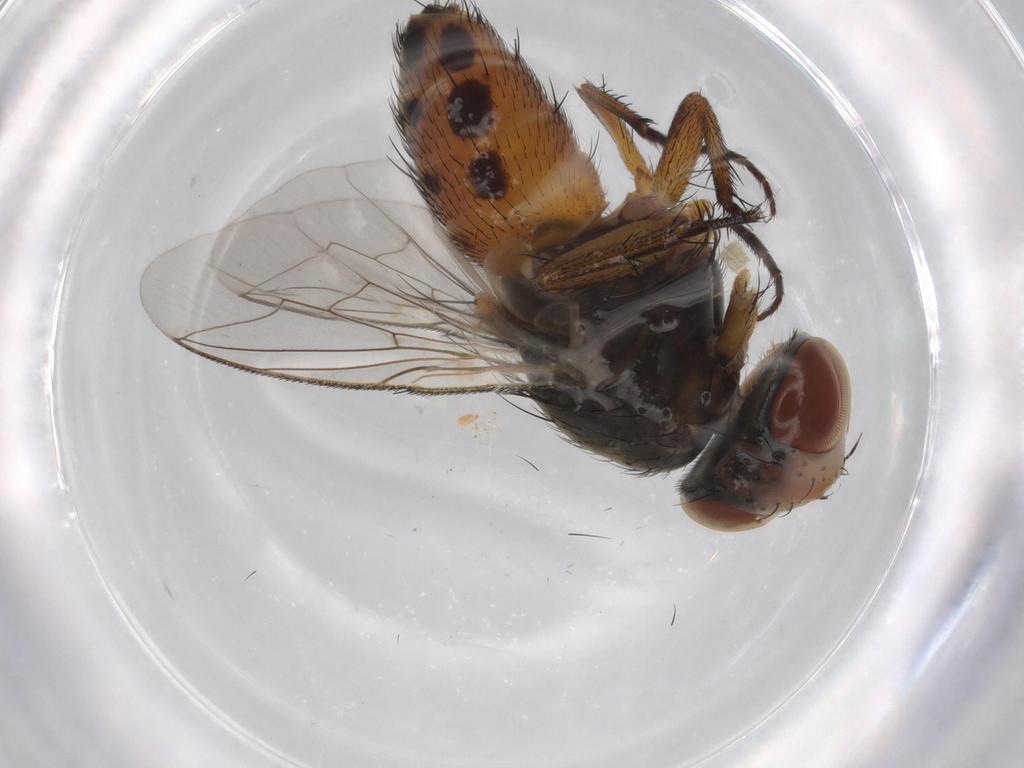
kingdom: Animalia
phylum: Arthropoda
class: Insecta
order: Diptera
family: Sarcophagidae
